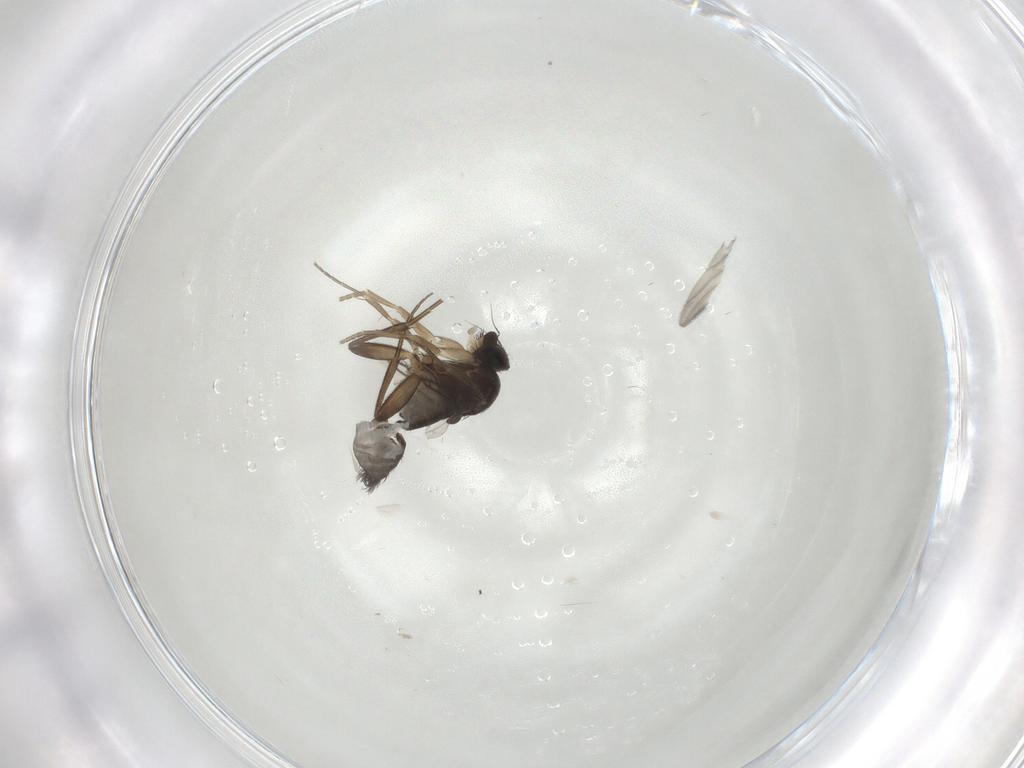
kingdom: Animalia
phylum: Arthropoda
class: Insecta
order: Diptera
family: Phoridae
